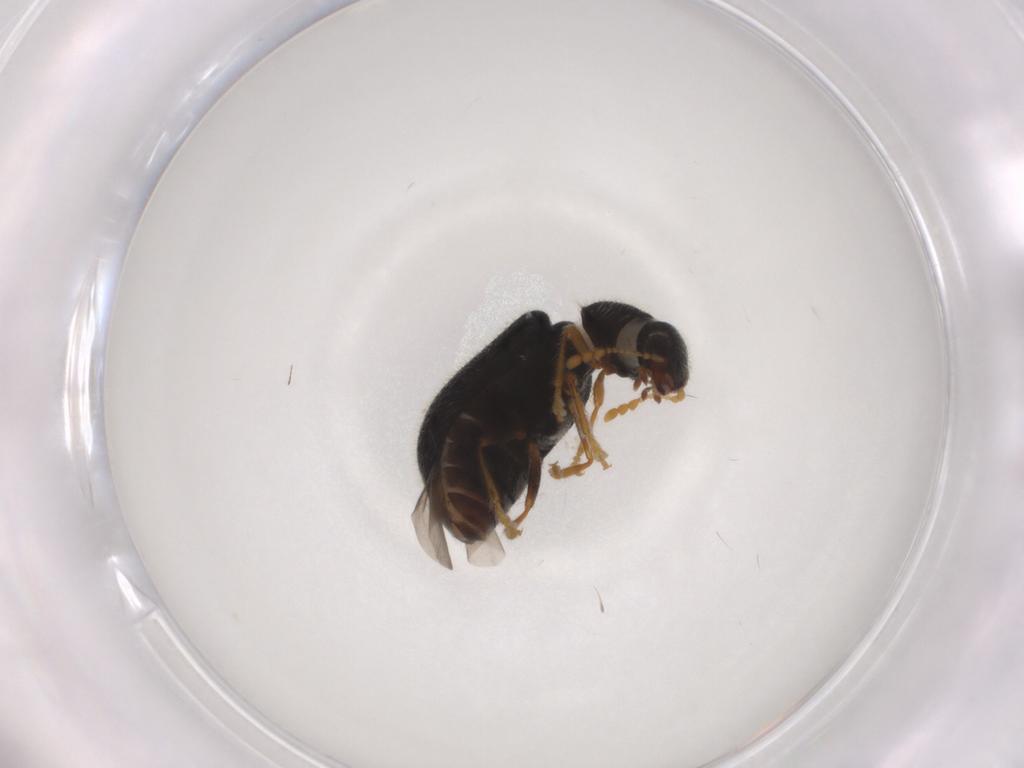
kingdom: Animalia
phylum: Arthropoda
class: Insecta
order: Coleoptera
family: Cleridae
